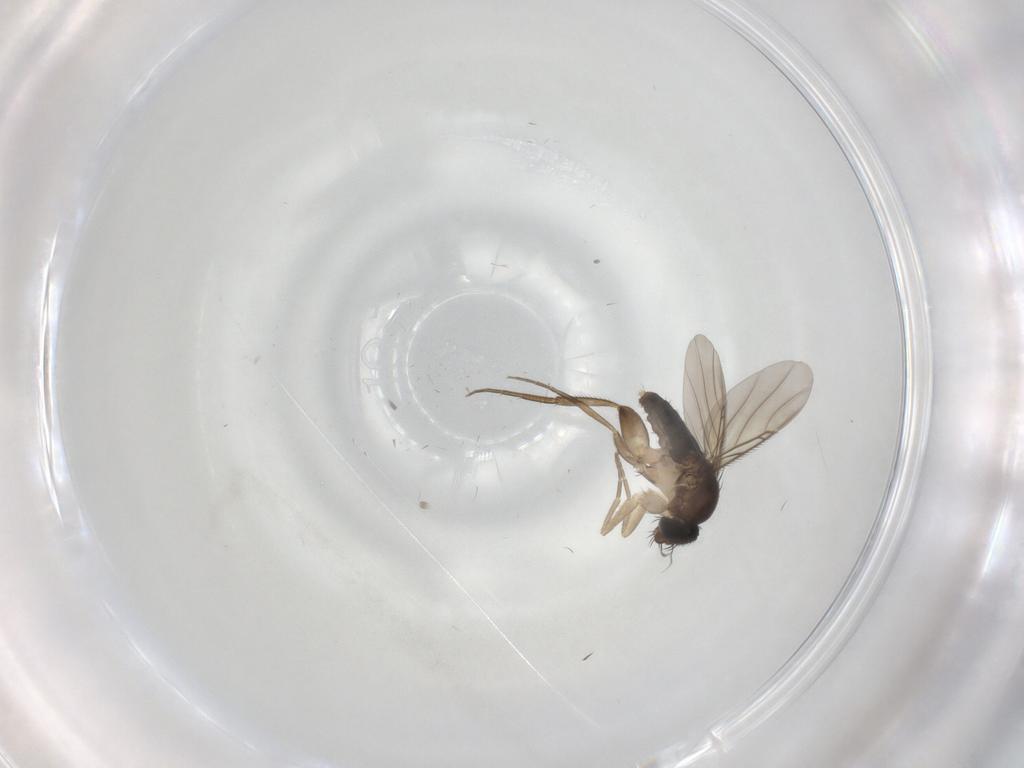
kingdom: Animalia
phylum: Arthropoda
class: Insecta
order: Diptera
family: Phoridae
